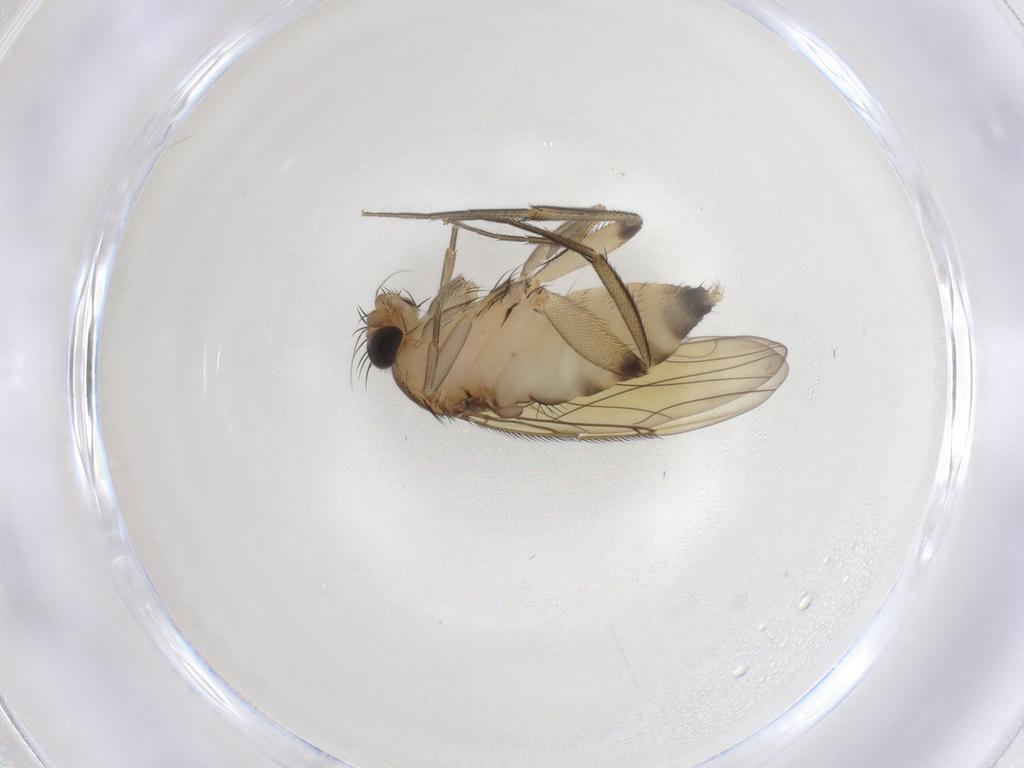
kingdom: Animalia
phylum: Arthropoda
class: Insecta
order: Diptera
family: Phoridae
